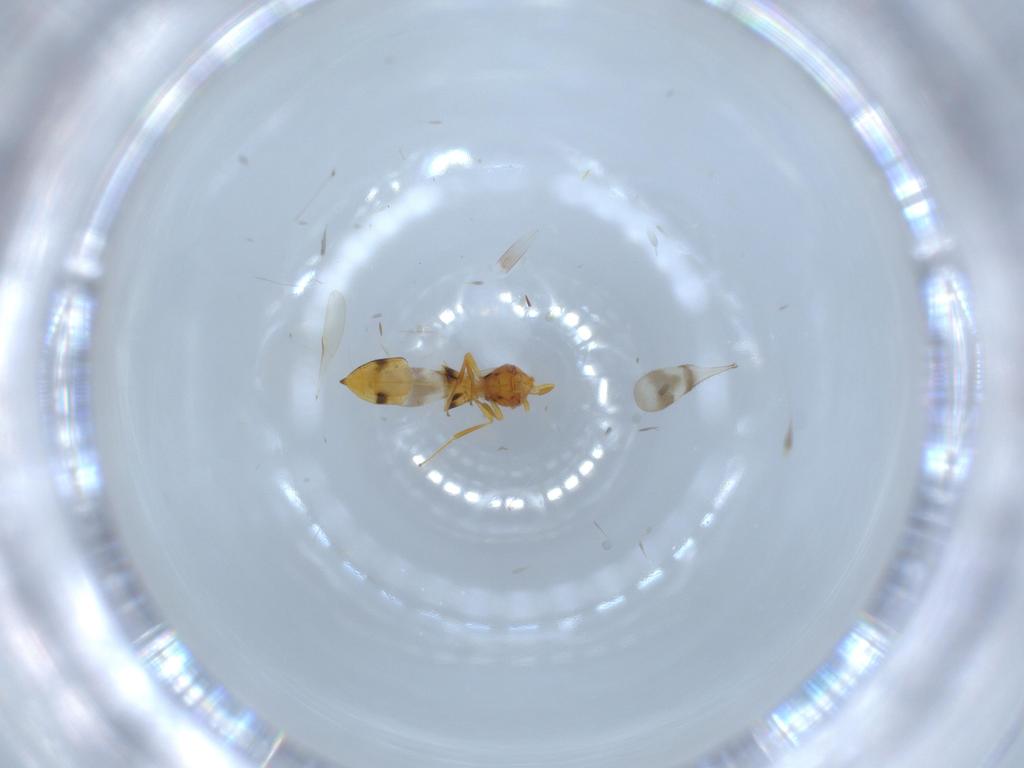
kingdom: Animalia
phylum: Arthropoda
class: Insecta
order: Hymenoptera
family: Scelionidae
